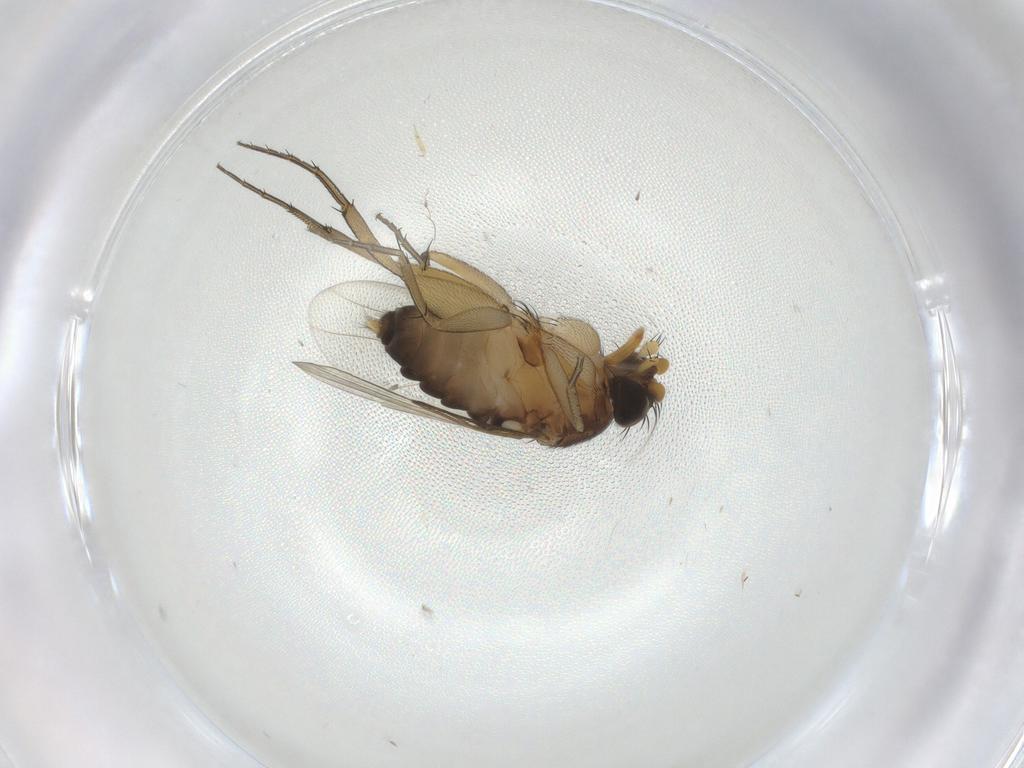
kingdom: Animalia
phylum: Arthropoda
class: Insecta
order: Diptera
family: Phoridae
